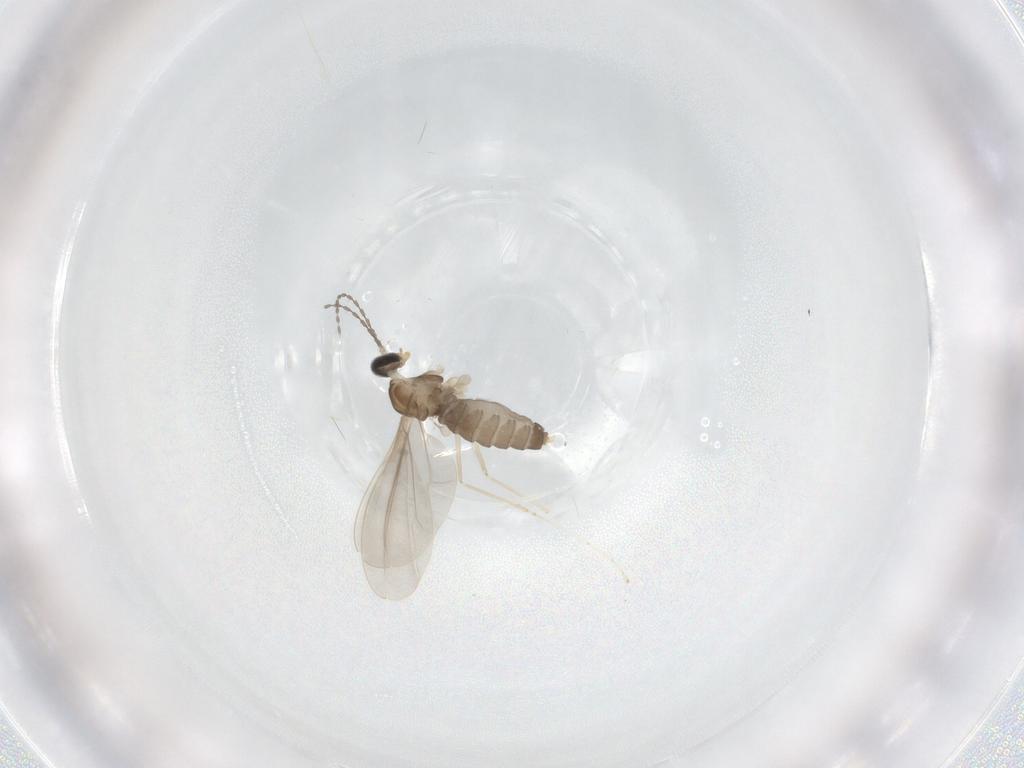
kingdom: Animalia
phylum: Arthropoda
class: Insecta
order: Diptera
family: Cecidomyiidae
